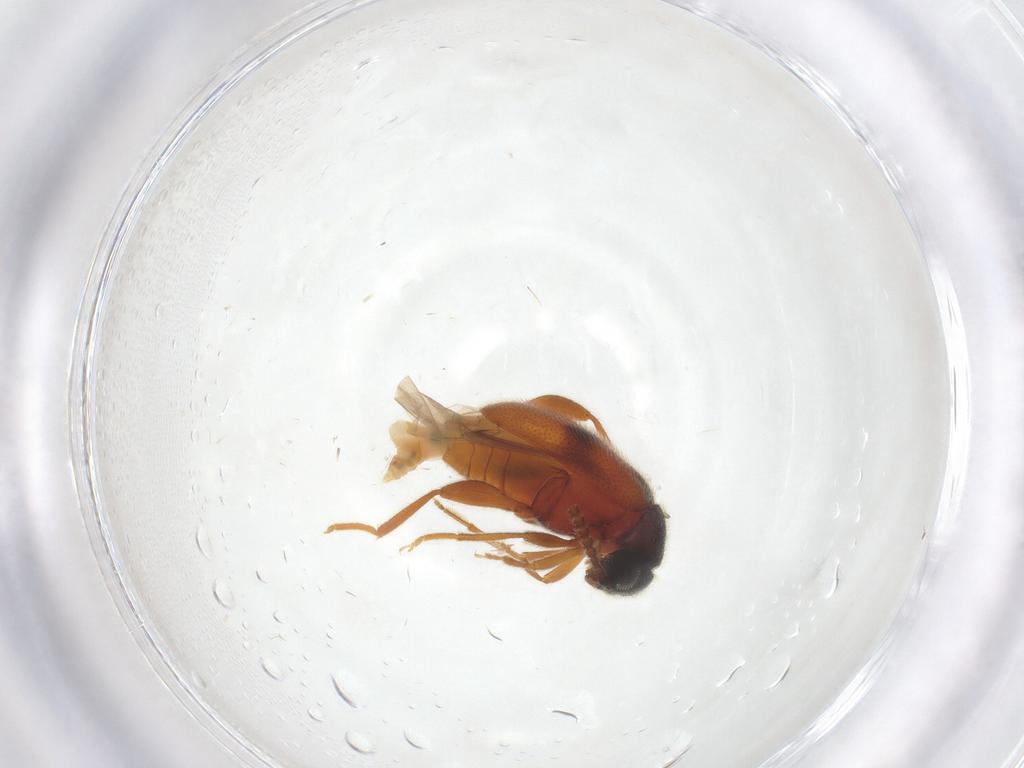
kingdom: Animalia
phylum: Arthropoda
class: Insecta
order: Coleoptera
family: Aderidae
